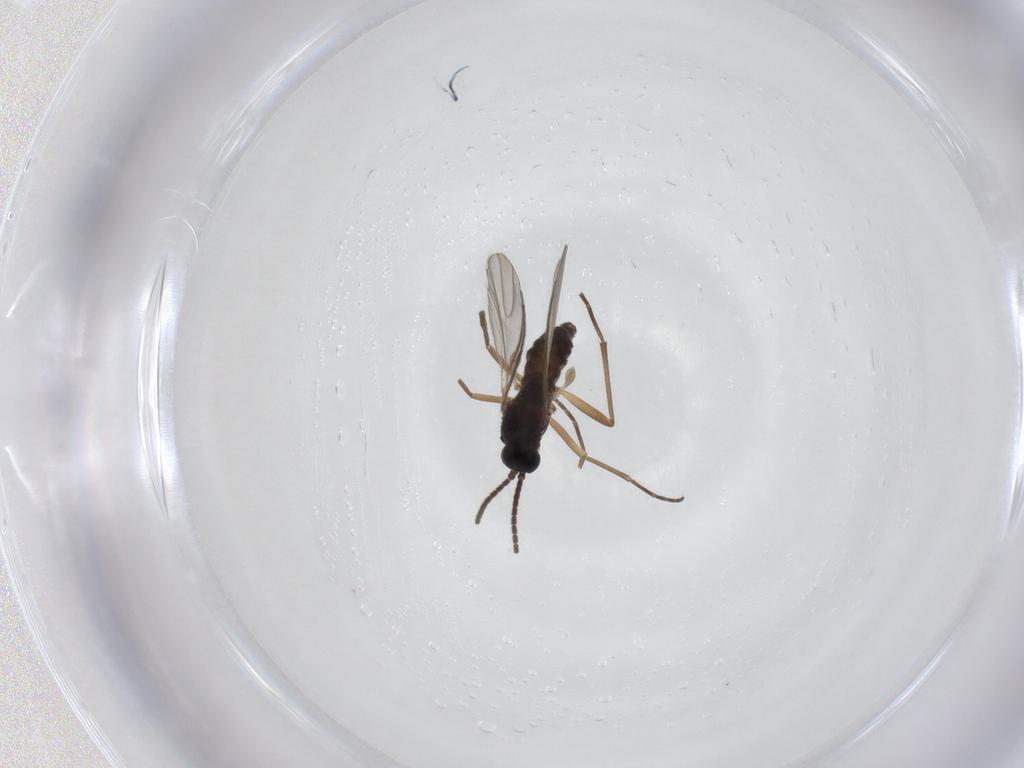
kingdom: Animalia
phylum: Arthropoda
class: Insecta
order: Diptera
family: Sciaridae
